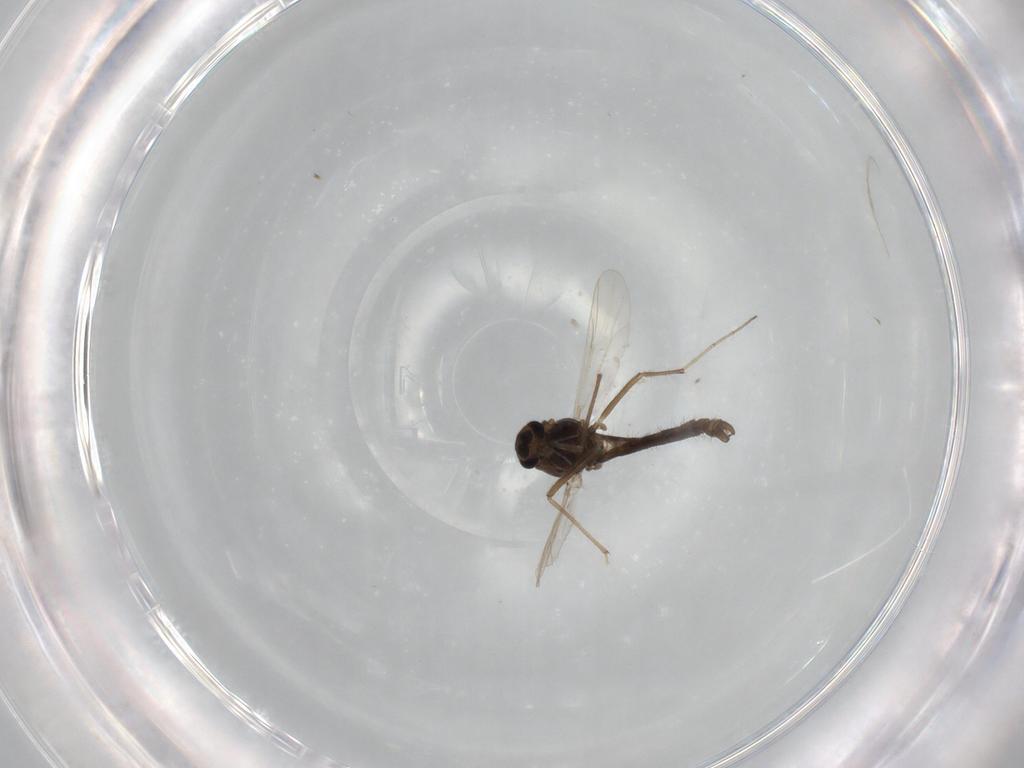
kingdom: Animalia
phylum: Arthropoda
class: Insecta
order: Diptera
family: Chironomidae
